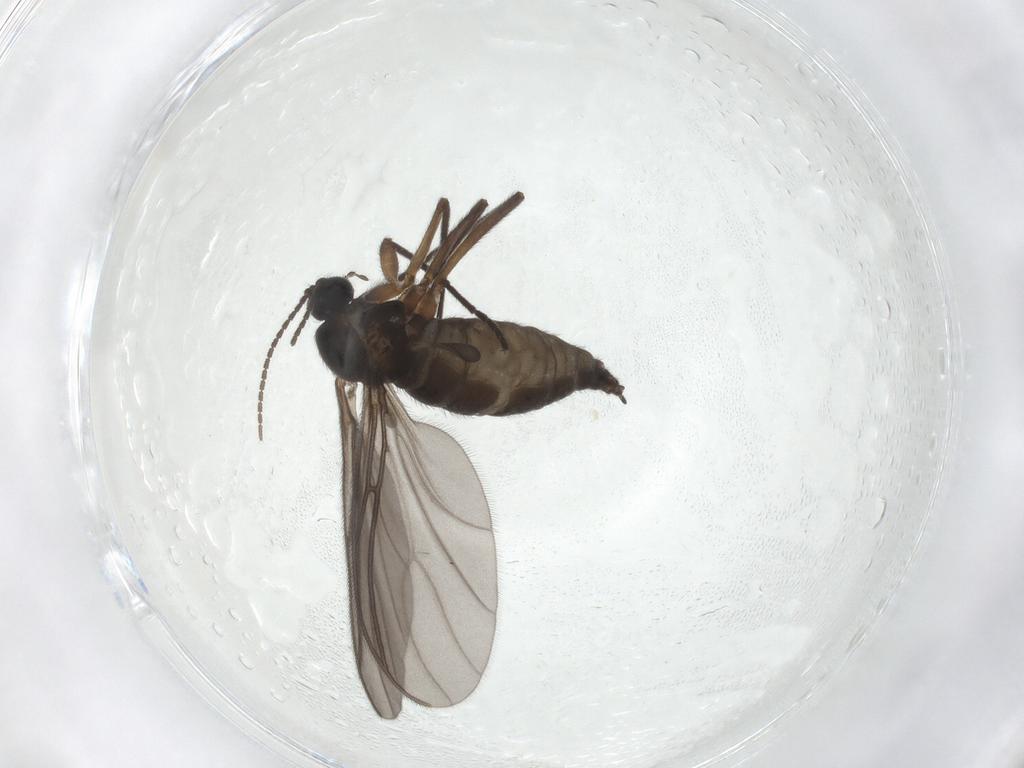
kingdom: Animalia
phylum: Arthropoda
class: Insecta
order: Diptera
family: Sciaridae
